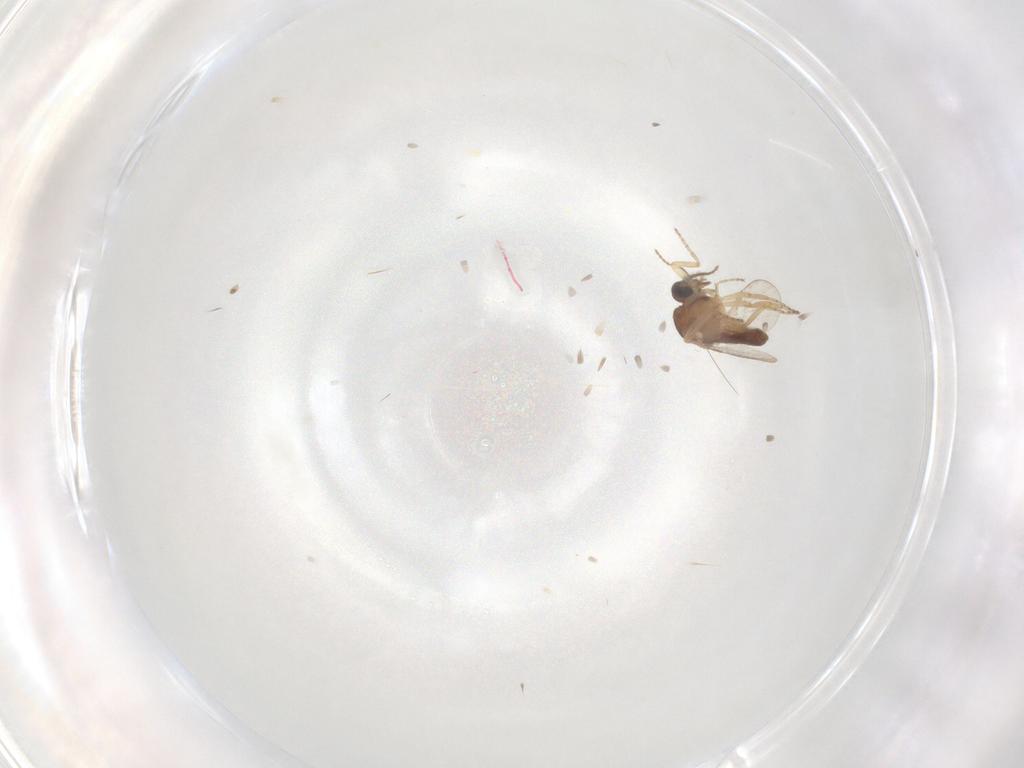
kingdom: Animalia
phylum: Arthropoda
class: Insecta
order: Diptera
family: Ceratopogonidae
